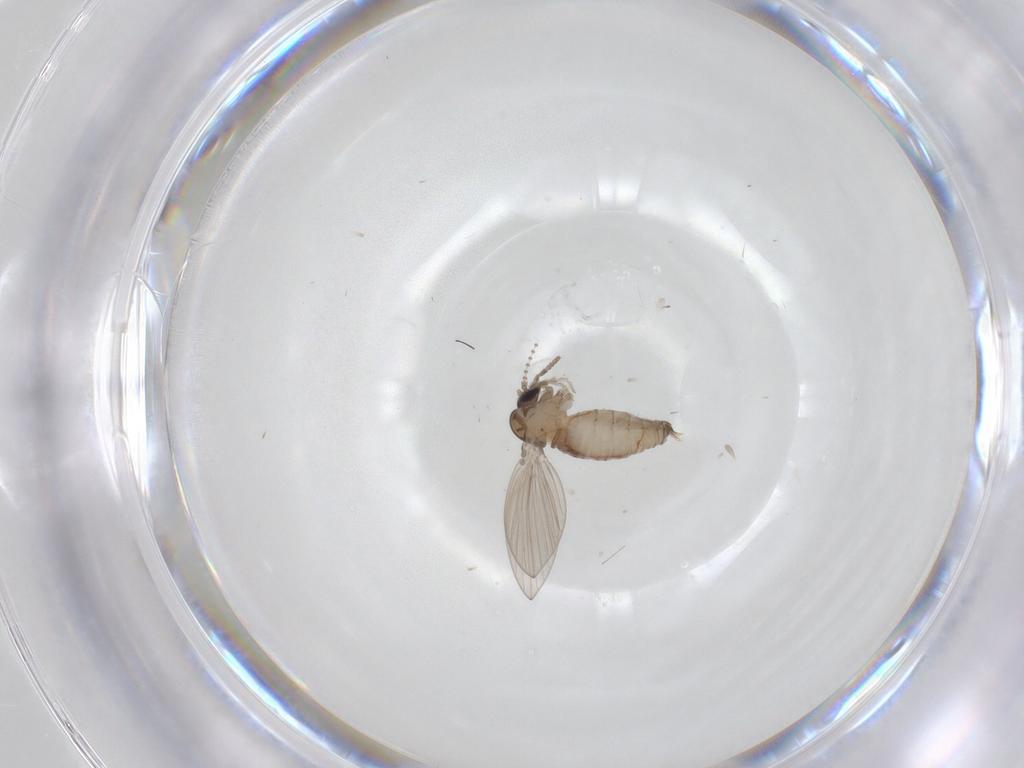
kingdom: Animalia
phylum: Arthropoda
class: Insecta
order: Diptera
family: Psychodidae
